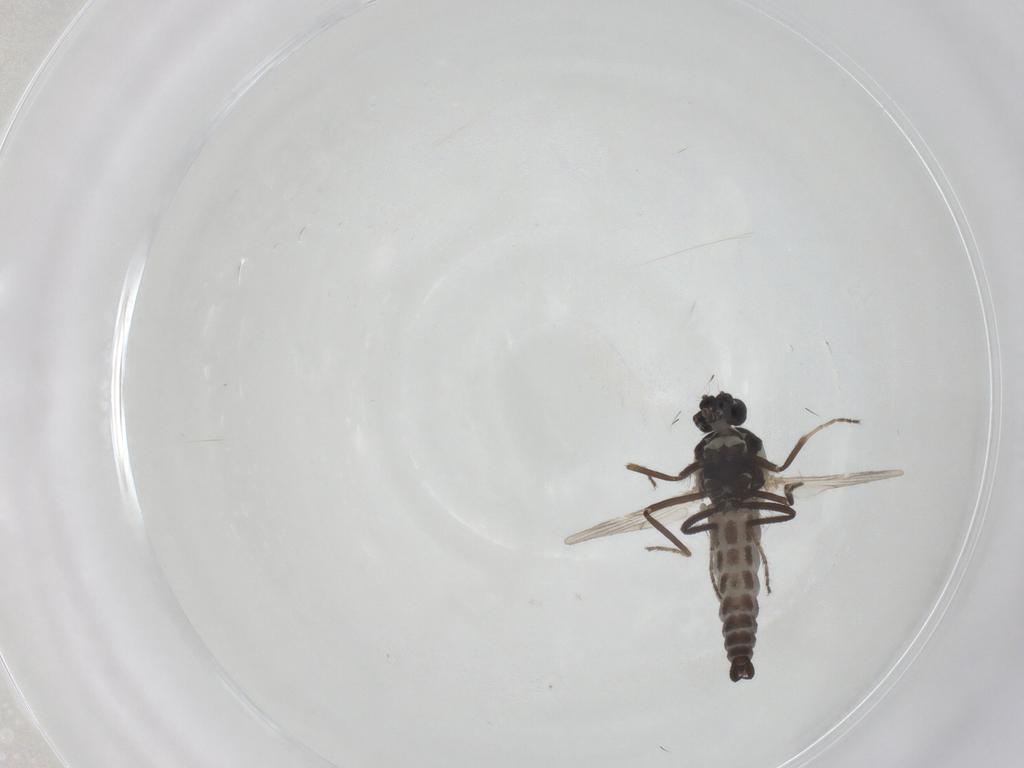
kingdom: Animalia
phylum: Arthropoda
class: Insecta
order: Diptera
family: Ceratopogonidae
